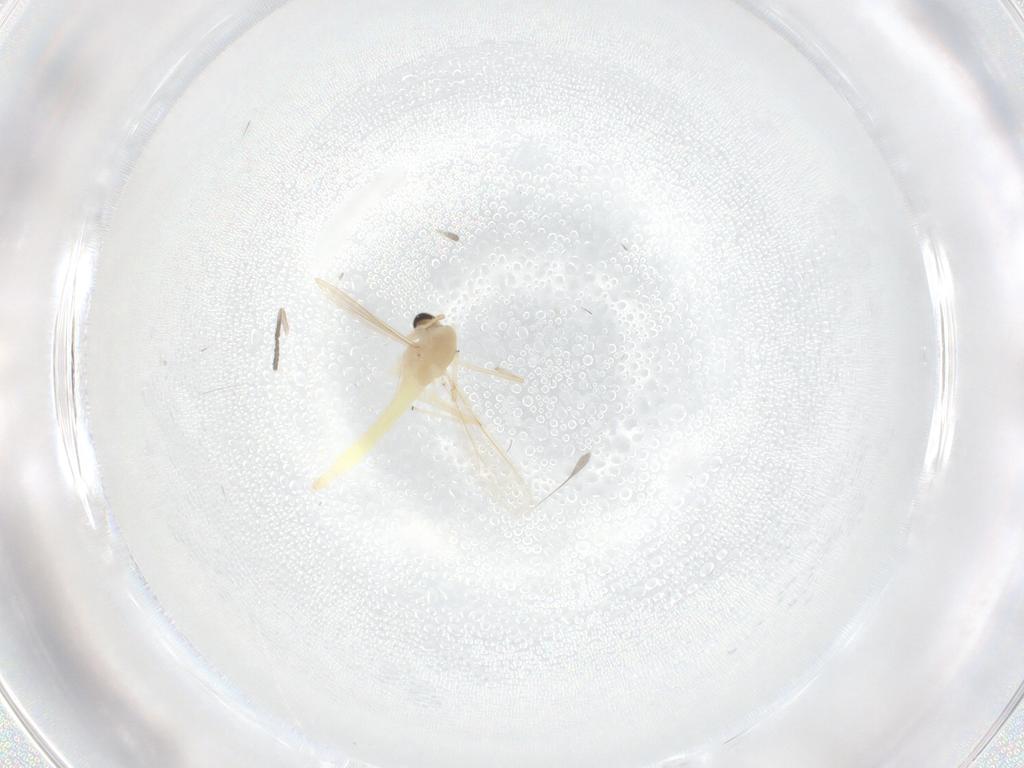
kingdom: Animalia
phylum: Arthropoda
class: Insecta
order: Diptera
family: Chironomidae
